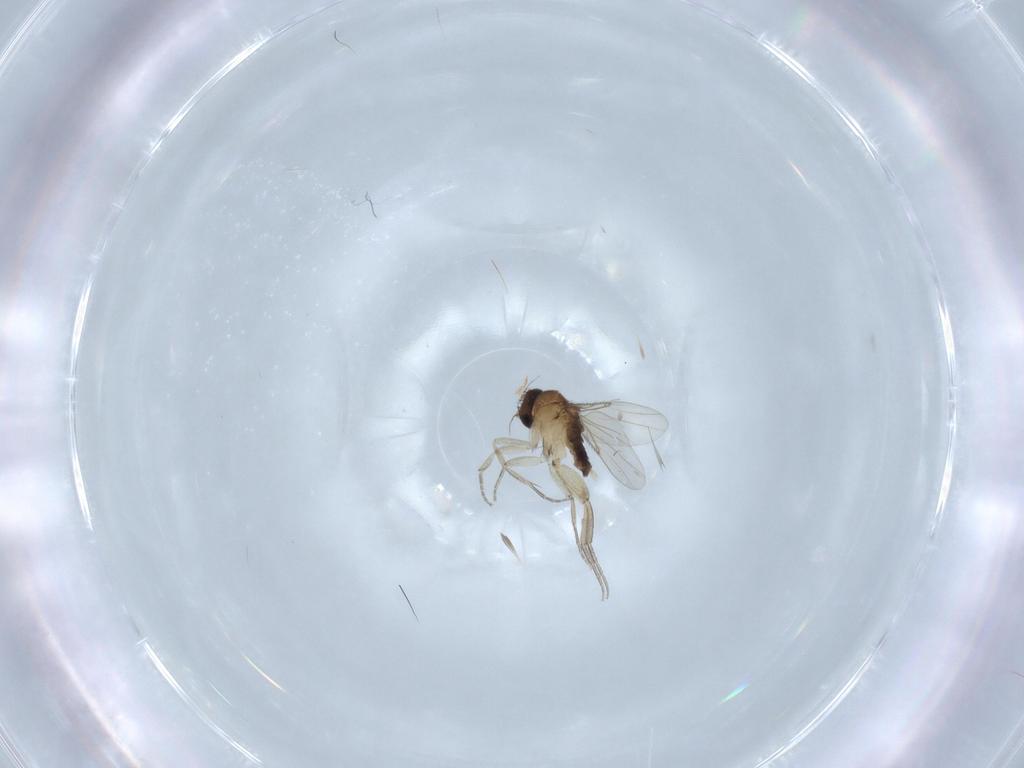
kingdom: Animalia
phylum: Arthropoda
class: Insecta
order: Diptera
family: Phoridae
